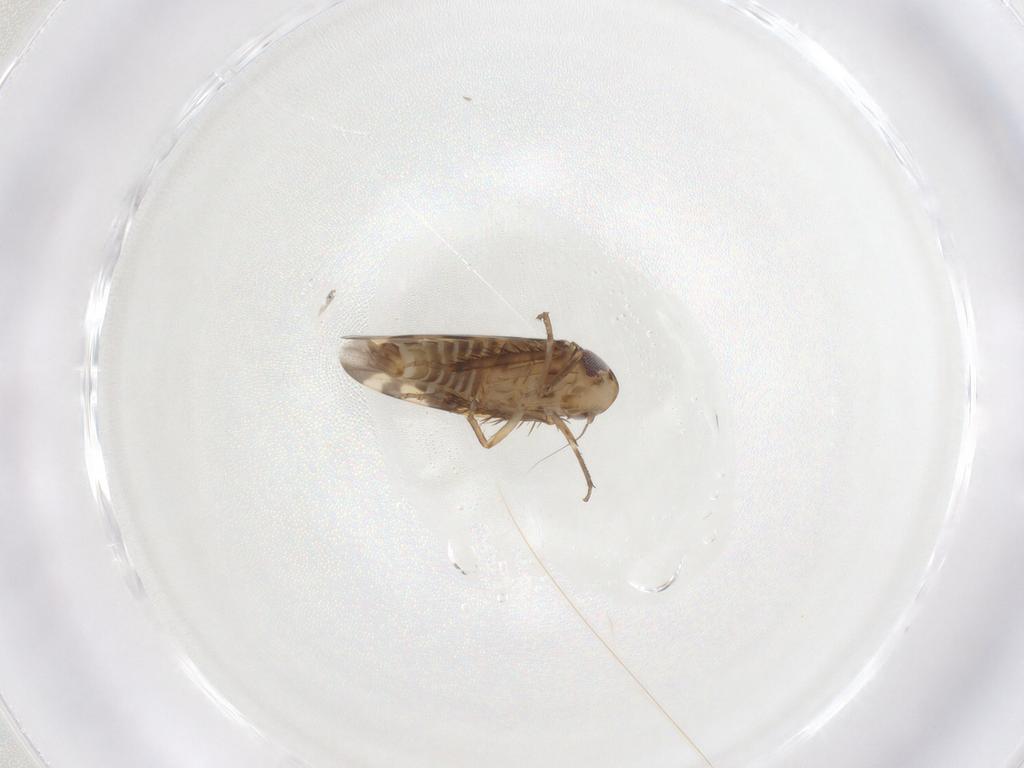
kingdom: Animalia
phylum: Arthropoda
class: Insecta
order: Hemiptera
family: Cicadellidae
